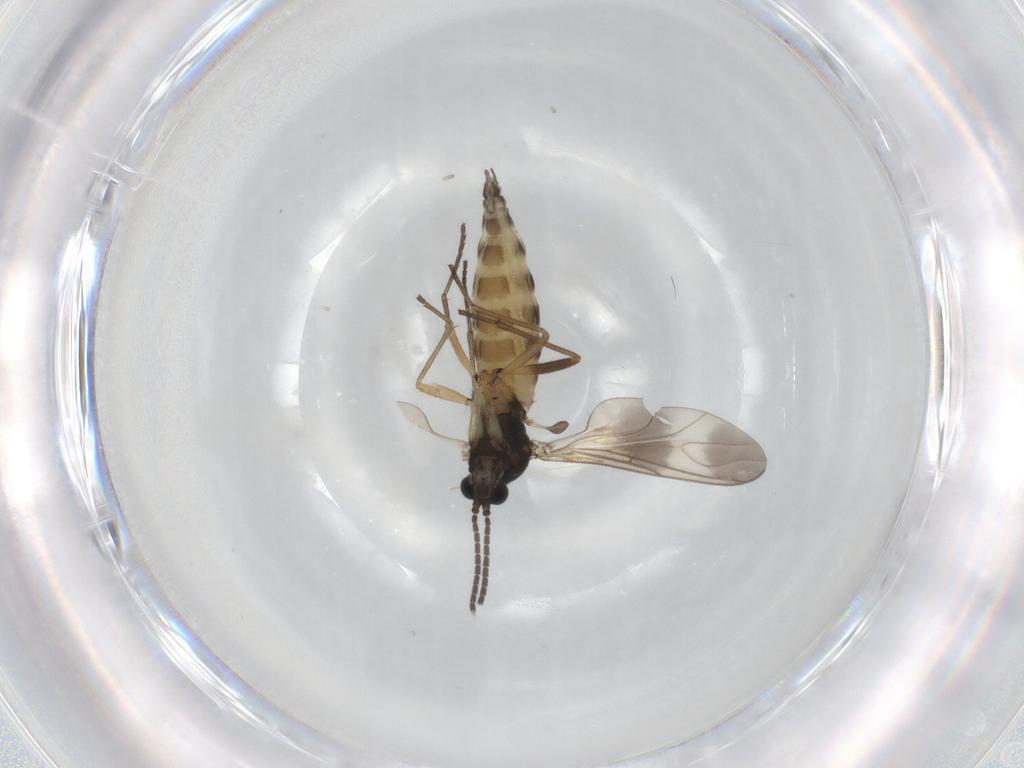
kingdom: Animalia
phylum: Arthropoda
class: Insecta
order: Diptera
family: Sciaridae
